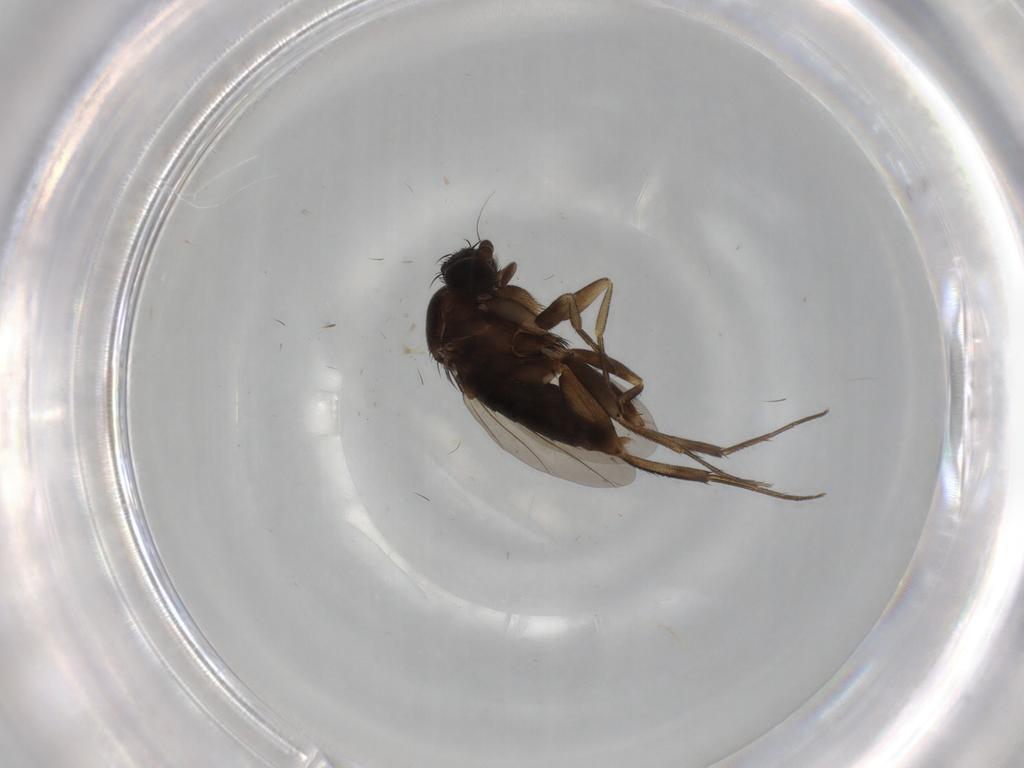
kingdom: Animalia
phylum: Arthropoda
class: Insecta
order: Diptera
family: Phoridae
